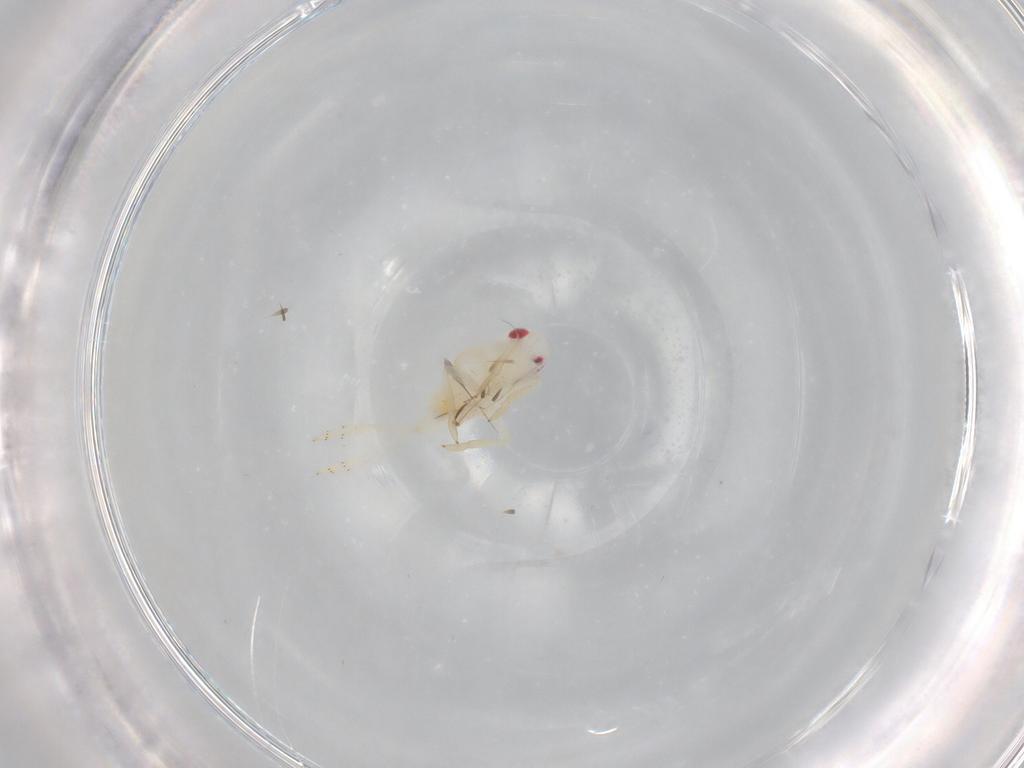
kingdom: Animalia
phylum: Arthropoda
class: Insecta
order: Hemiptera
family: Tropiduchidae
